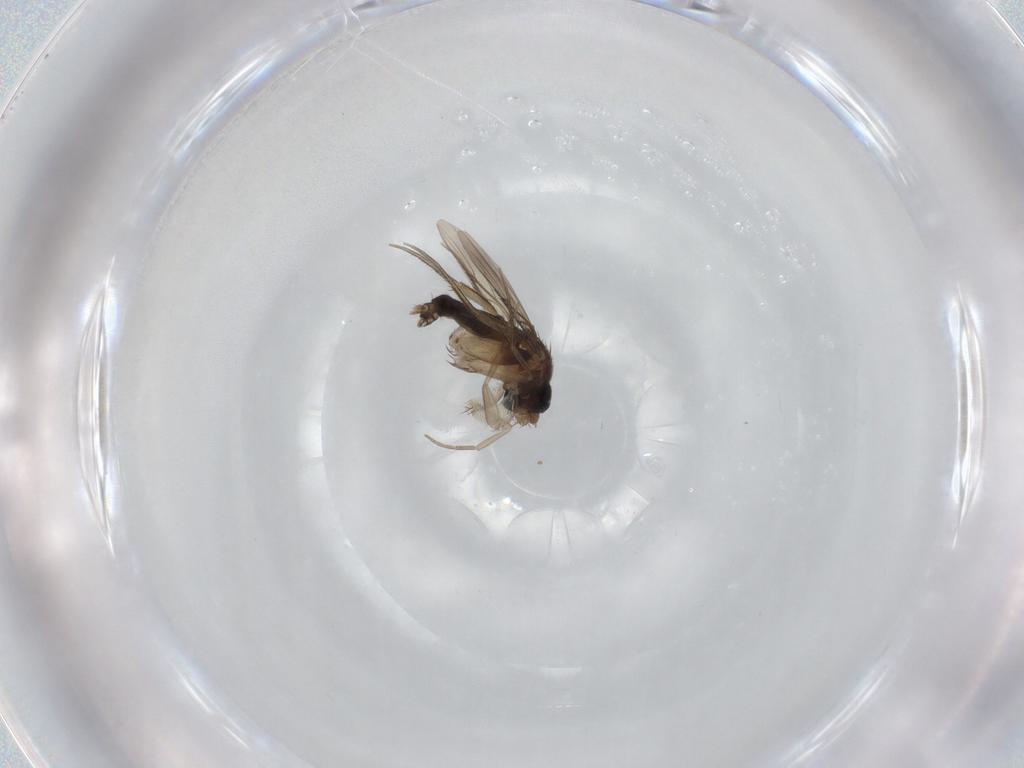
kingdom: Animalia
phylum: Arthropoda
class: Insecta
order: Diptera
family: Phoridae
